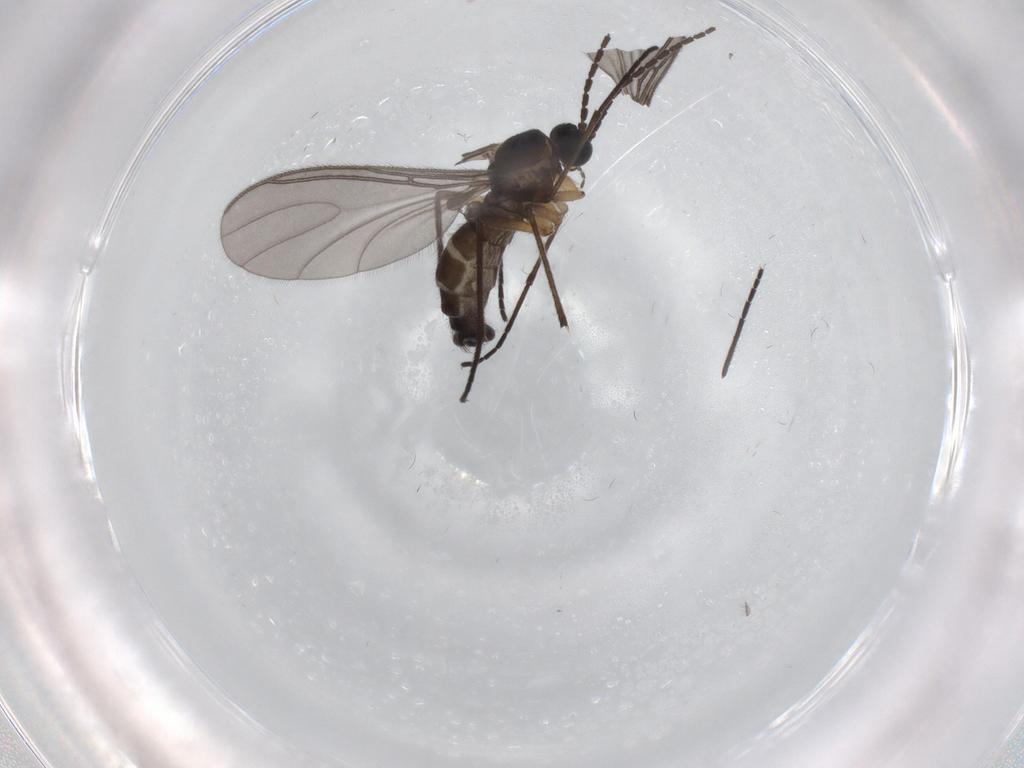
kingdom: Animalia
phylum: Arthropoda
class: Insecta
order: Diptera
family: Sciaridae
